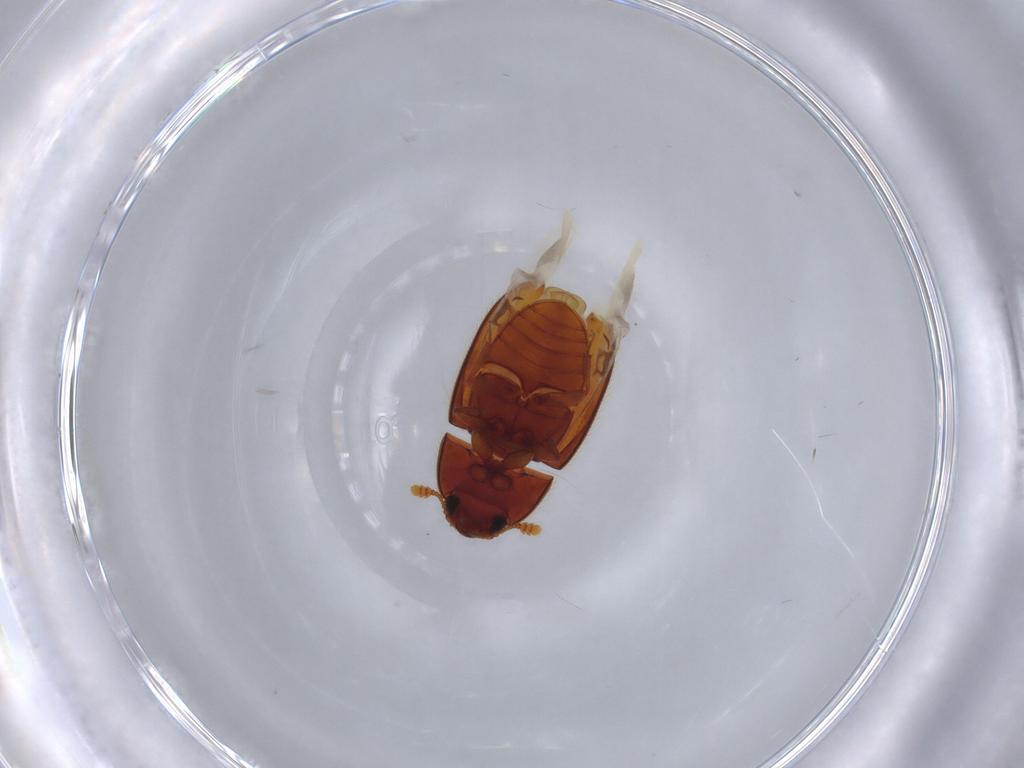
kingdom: Animalia
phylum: Arthropoda
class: Insecta
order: Coleoptera
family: Biphyllidae
